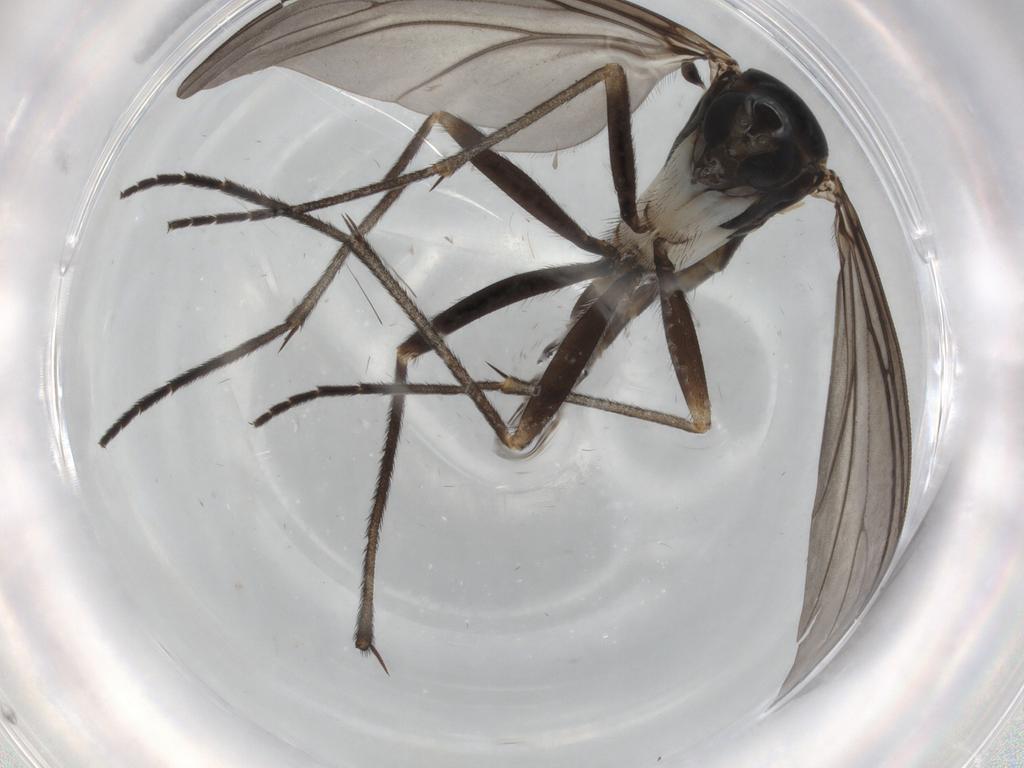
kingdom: Animalia
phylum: Arthropoda
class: Insecta
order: Diptera
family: Sciaridae
